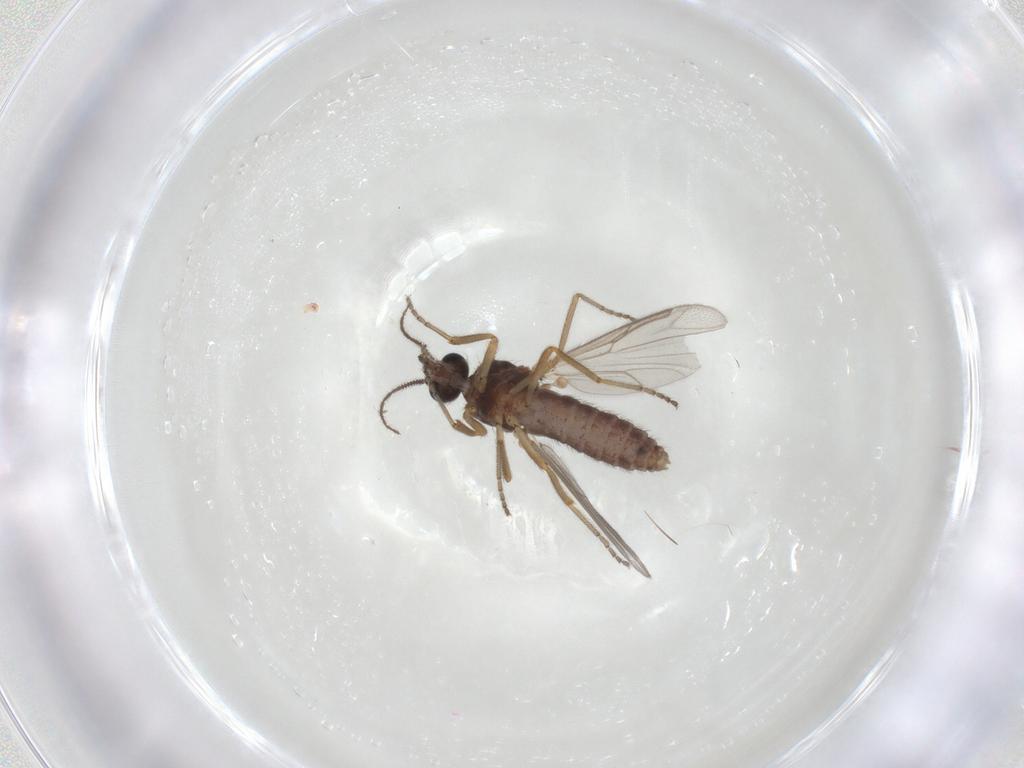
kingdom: Animalia
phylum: Arthropoda
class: Insecta
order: Diptera
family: Ceratopogonidae
